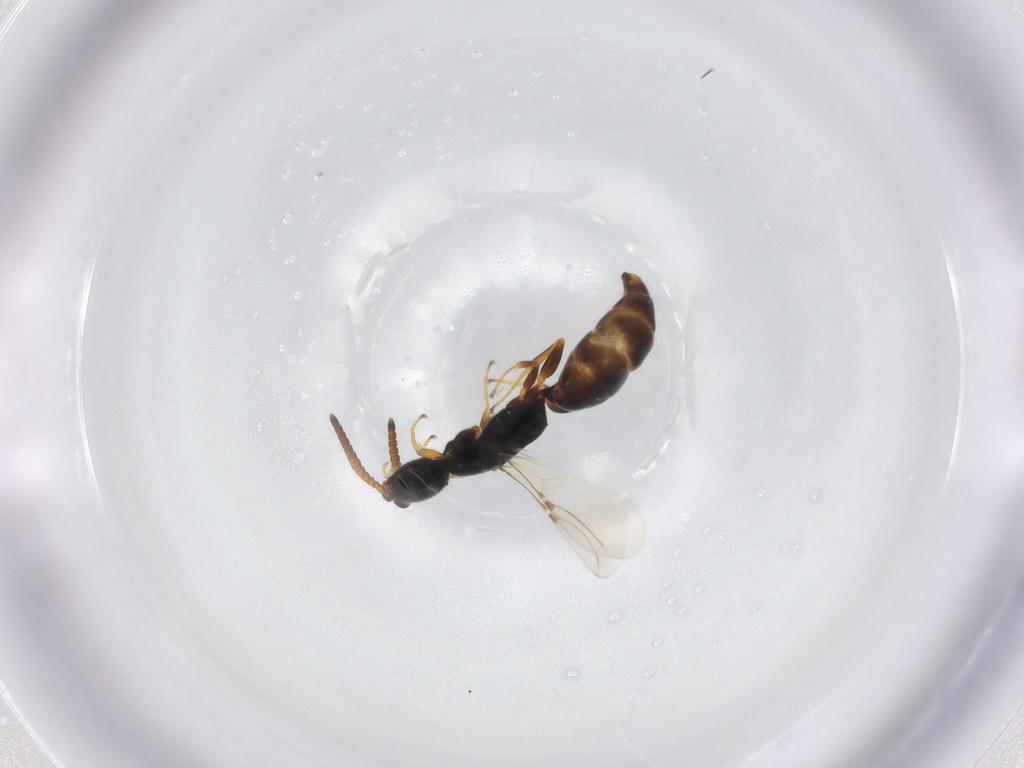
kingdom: Animalia
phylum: Arthropoda
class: Insecta
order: Hymenoptera
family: Bethylidae
